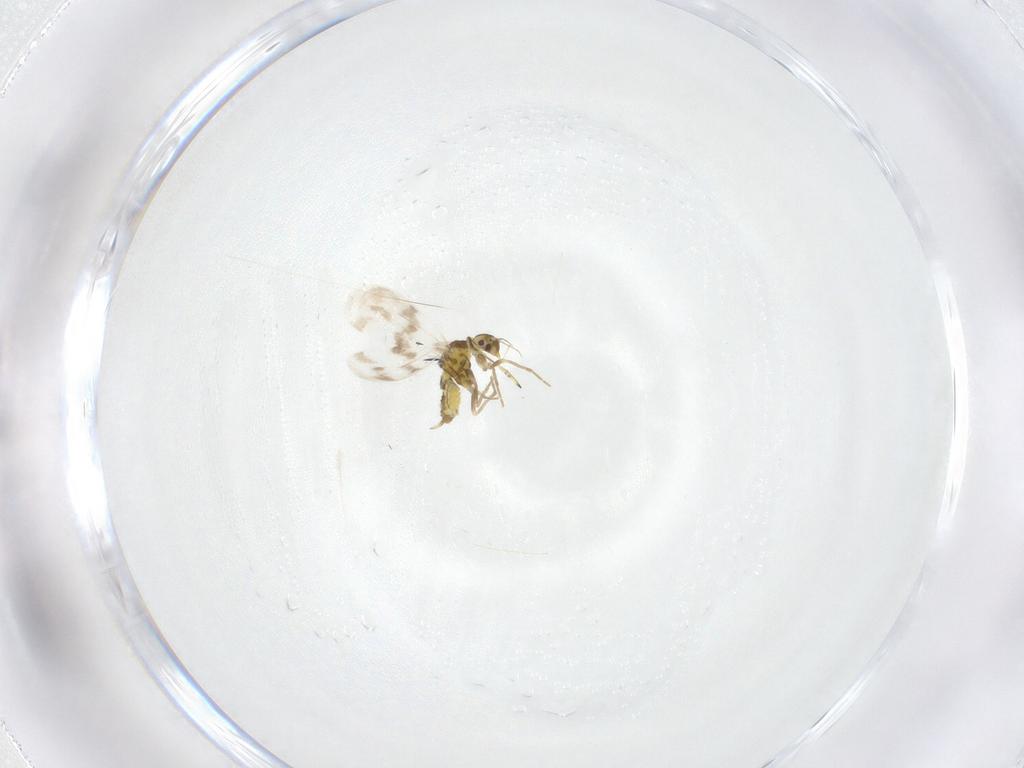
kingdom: Animalia
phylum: Arthropoda
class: Insecta
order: Hemiptera
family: Aleyrodidae
